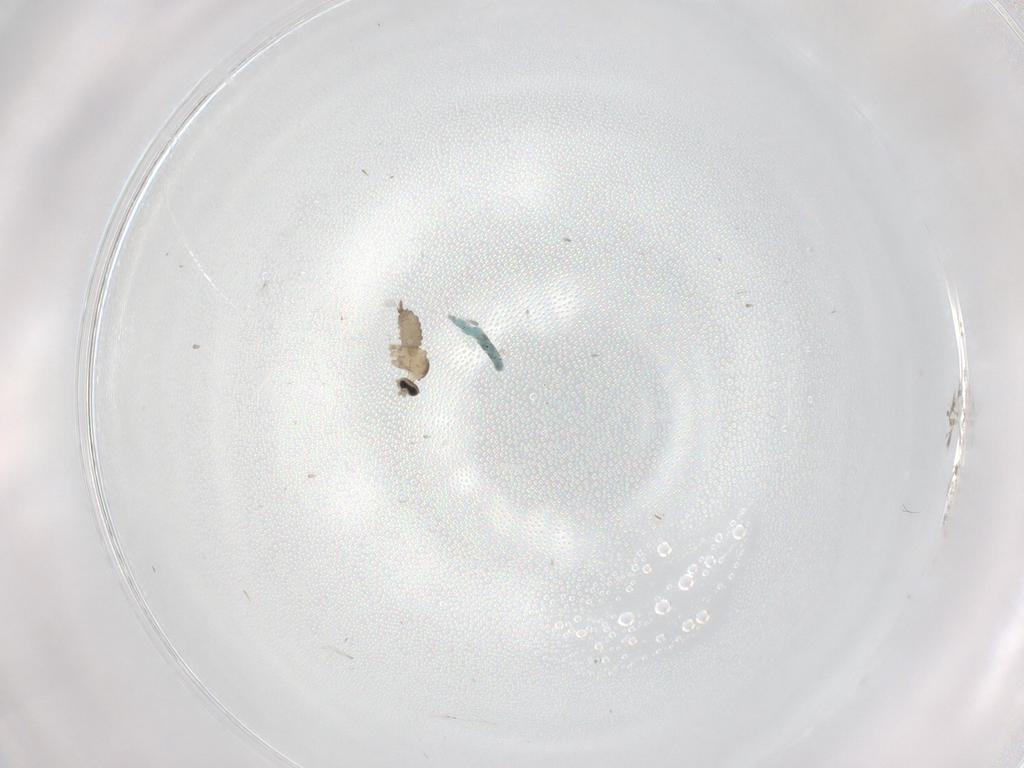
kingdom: Animalia
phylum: Arthropoda
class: Insecta
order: Diptera
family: Cecidomyiidae
